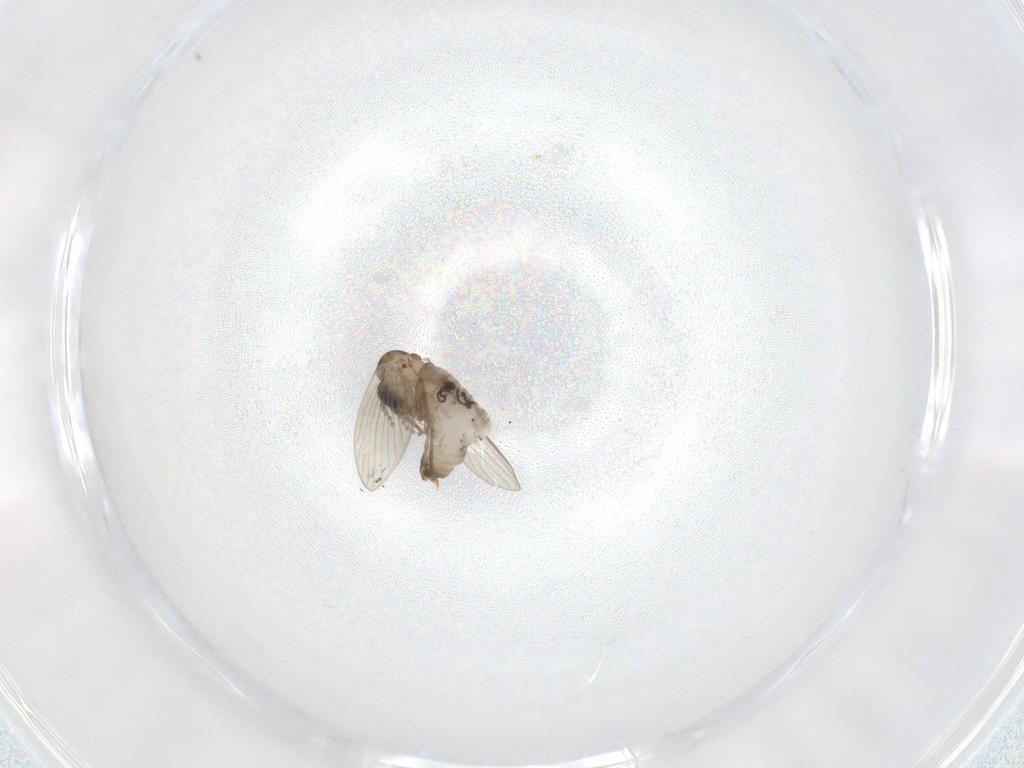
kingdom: Animalia
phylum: Arthropoda
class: Insecta
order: Diptera
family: Psychodidae
